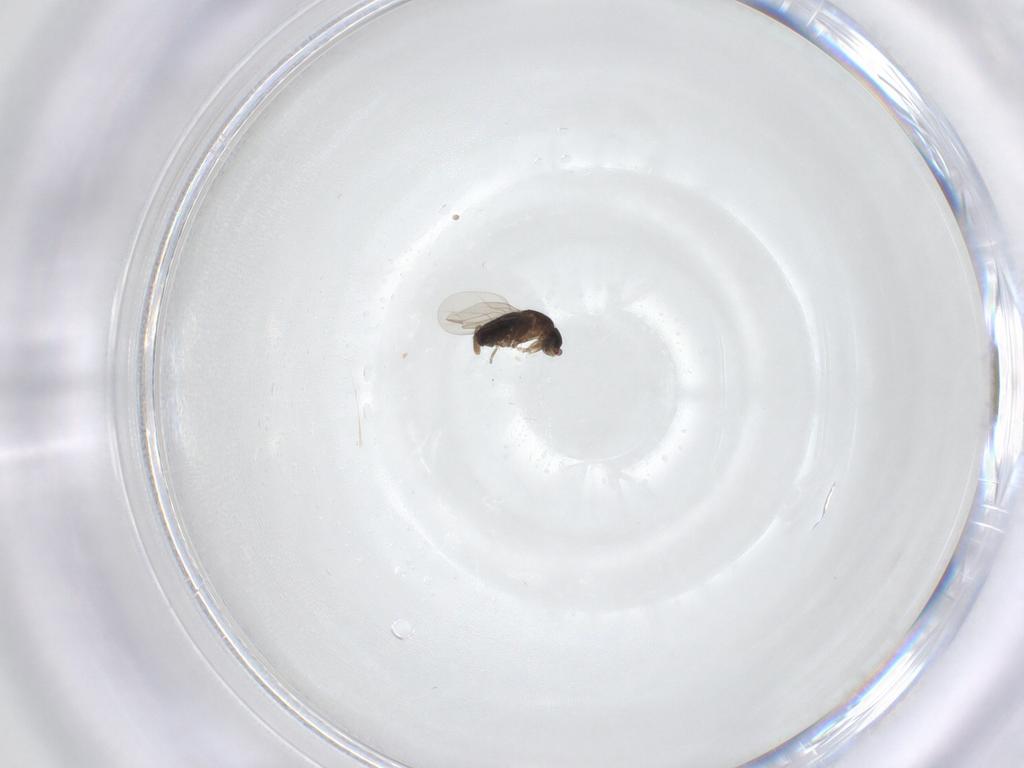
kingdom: Animalia
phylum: Arthropoda
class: Insecta
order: Diptera
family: Phoridae
